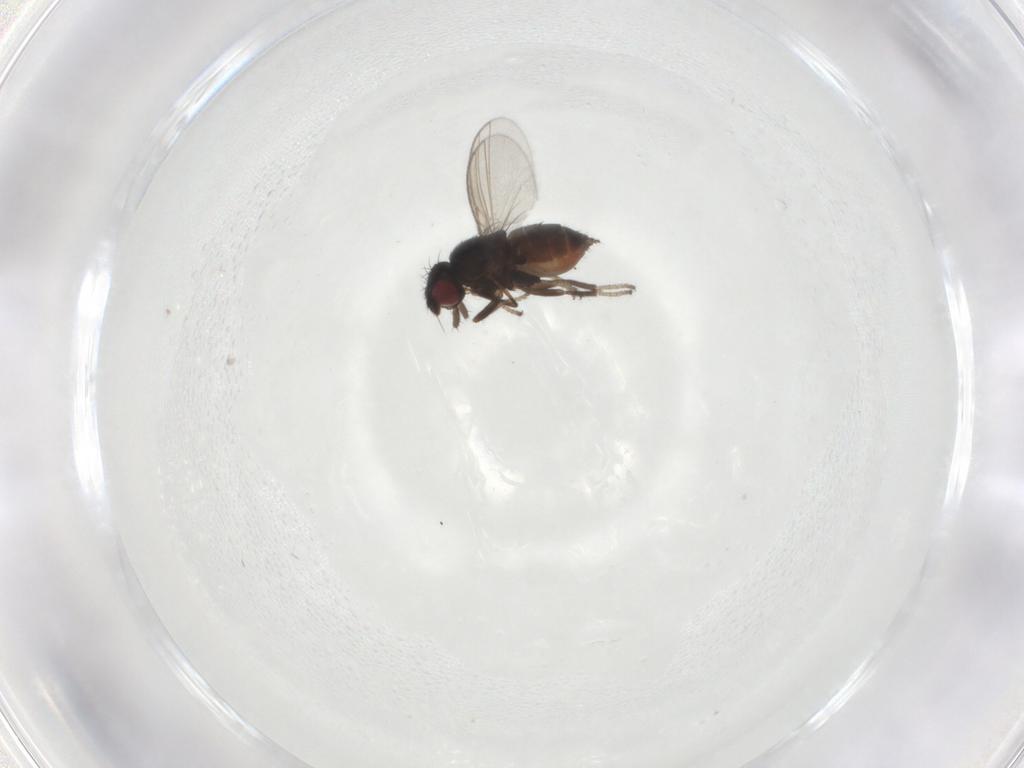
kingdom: Animalia
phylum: Arthropoda
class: Insecta
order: Diptera
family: Milichiidae
